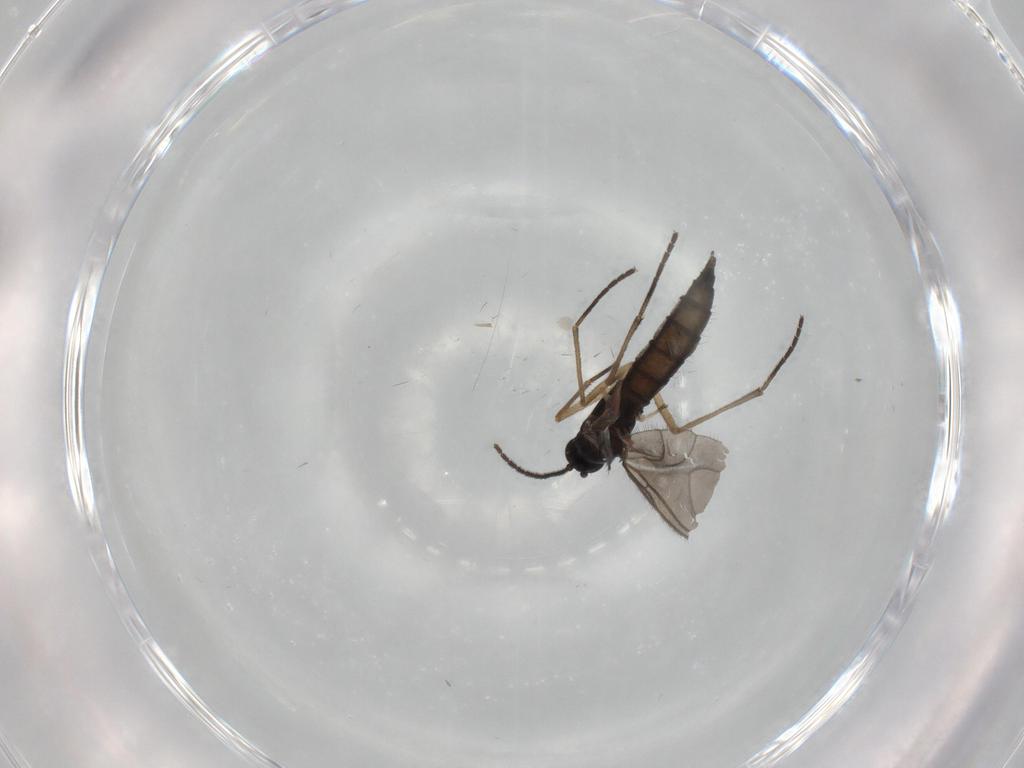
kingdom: Animalia
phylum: Arthropoda
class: Insecta
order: Diptera
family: Sciaridae
